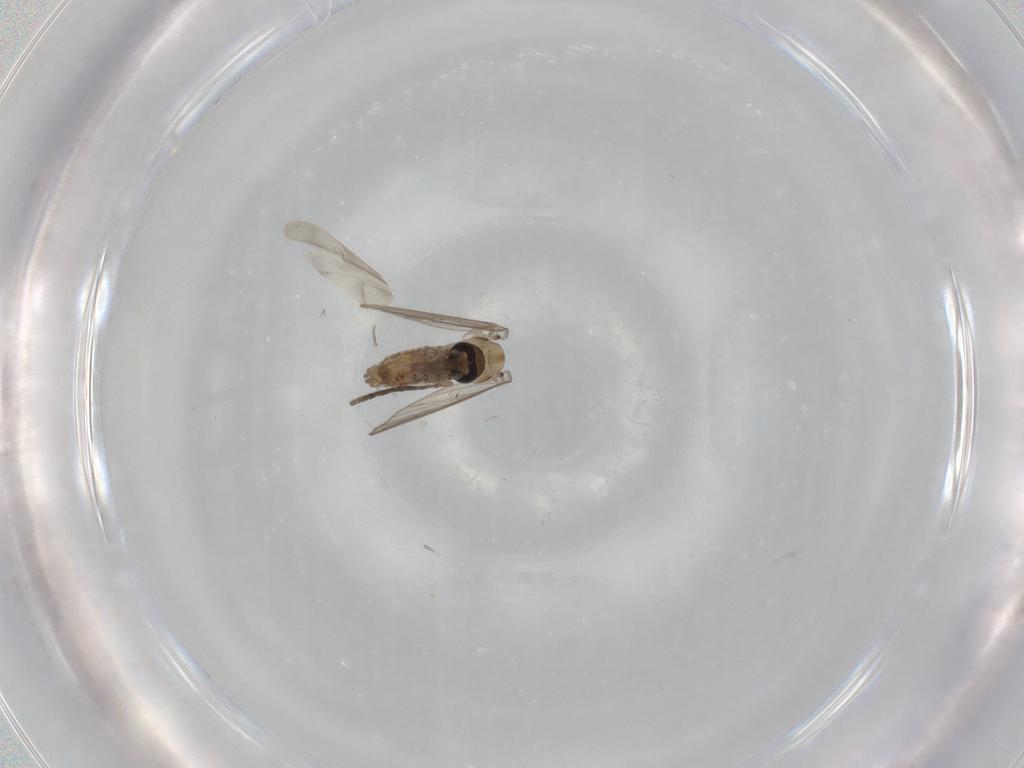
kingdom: Animalia
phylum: Arthropoda
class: Insecta
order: Diptera
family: Psychodidae
